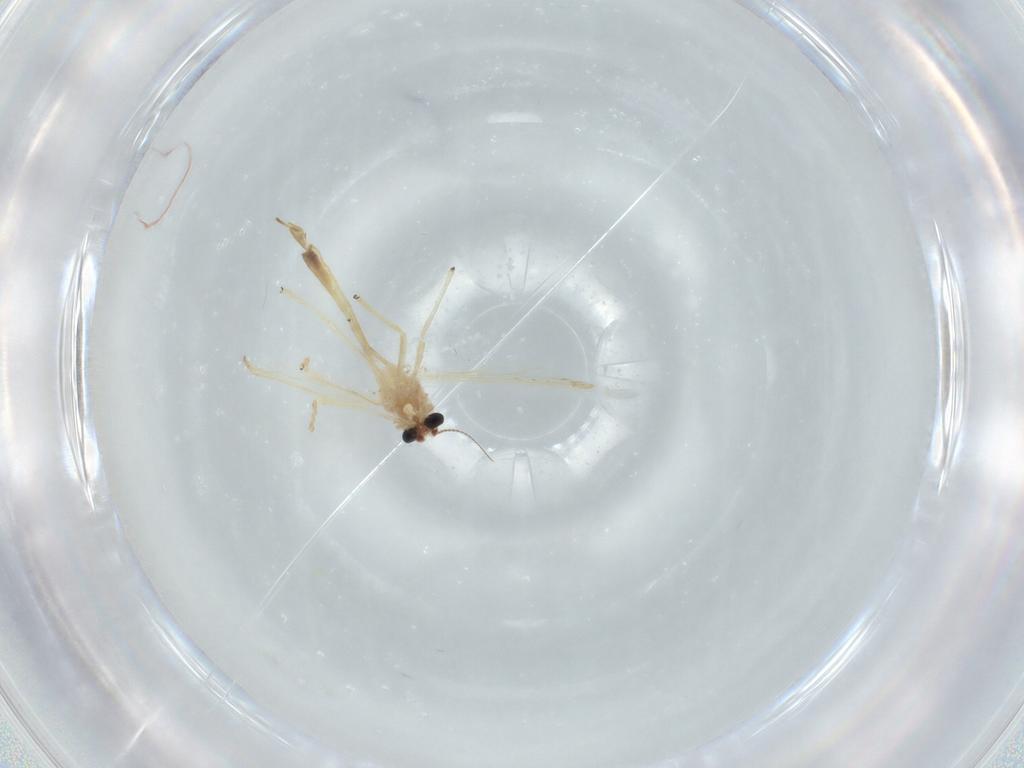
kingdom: Animalia
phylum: Arthropoda
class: Insecta
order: Diptera
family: Chironomidae
